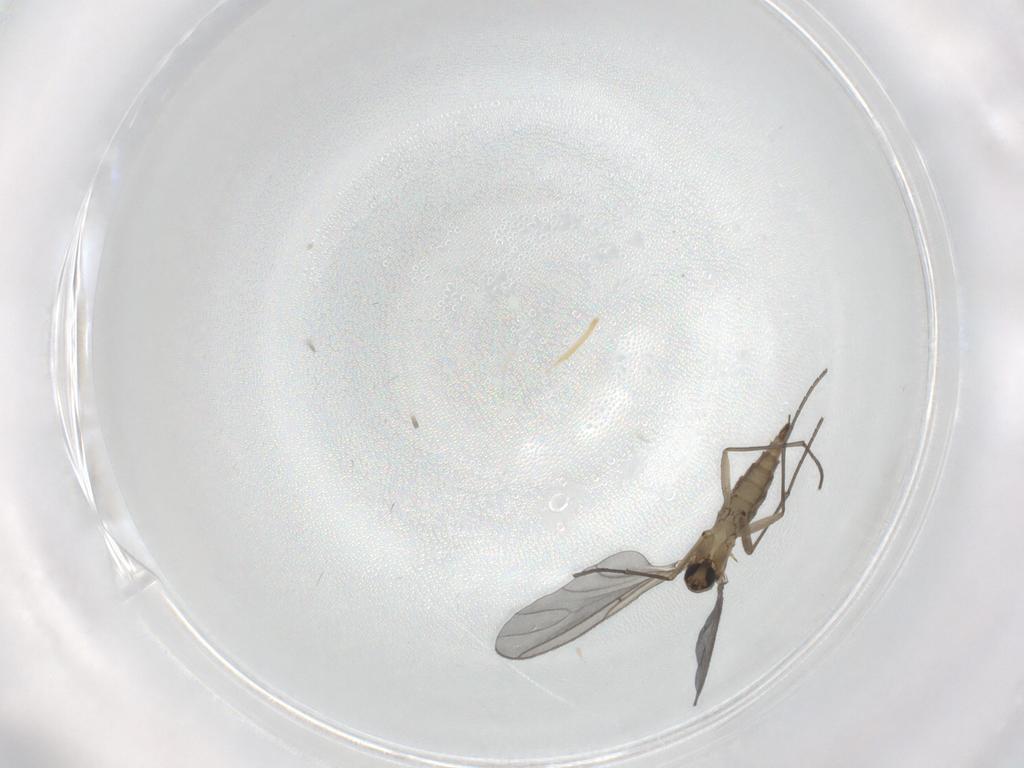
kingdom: Animalia
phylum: Arthropoda
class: Insecta
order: Diptera
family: Sciaridae
